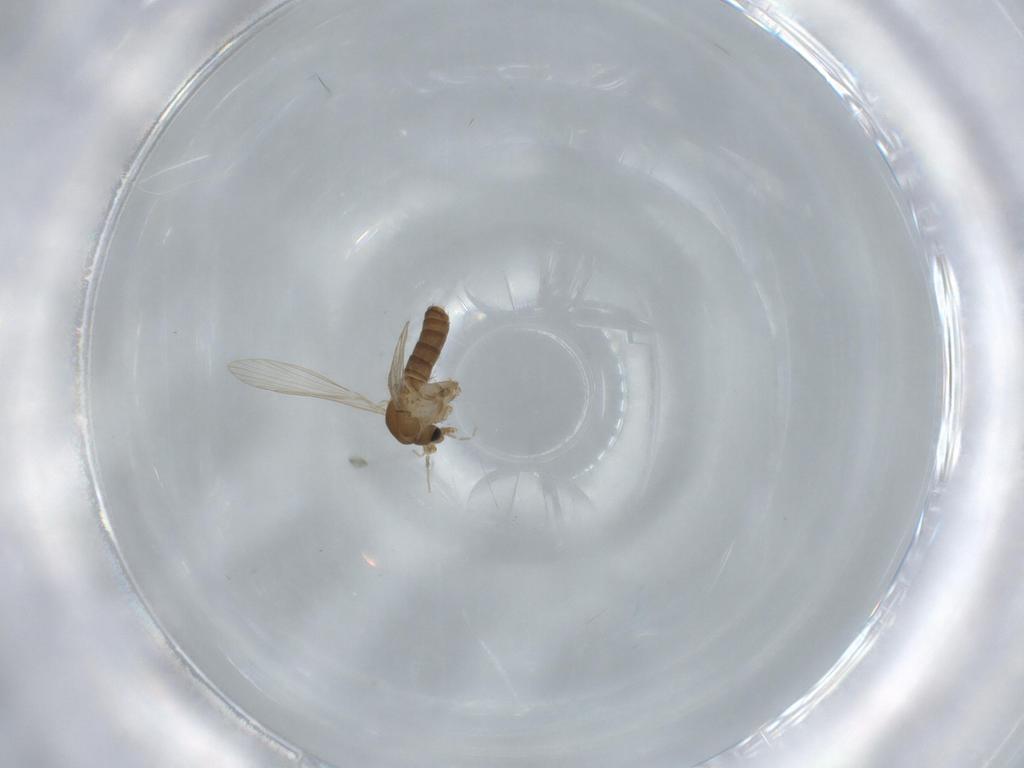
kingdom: Animalia
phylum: Arthropoda
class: Insecta
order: Diptera
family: Psychodidae
